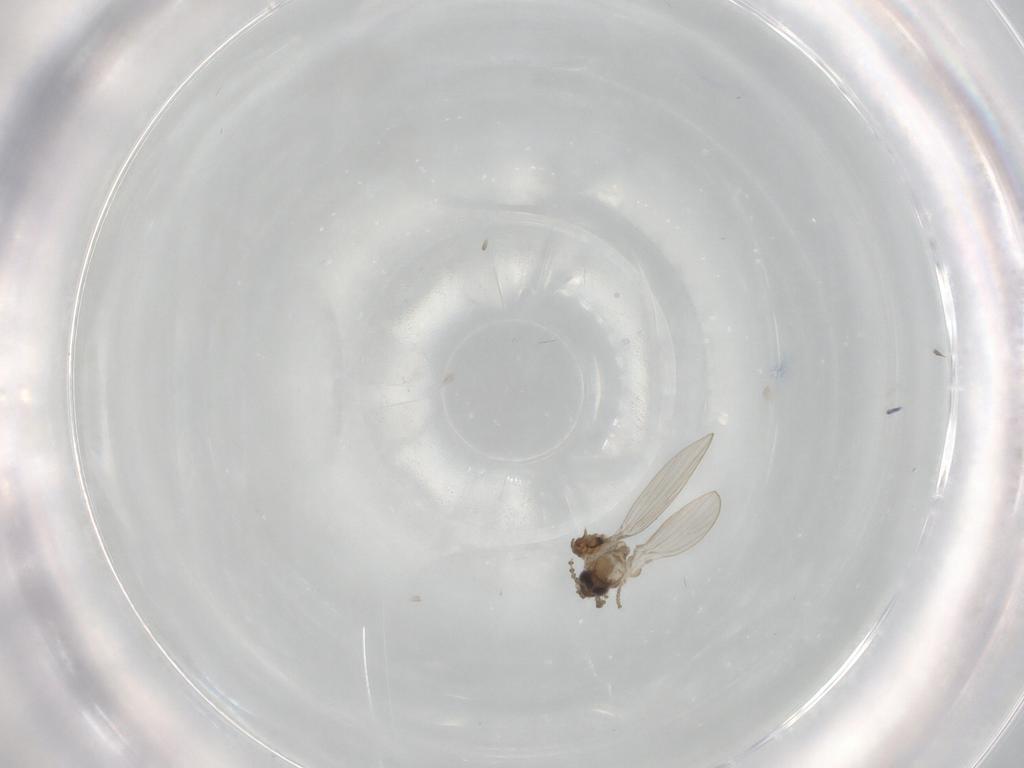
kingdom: Animalia
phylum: Arthropoda
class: Insecta
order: Diptera
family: Psychodidae
